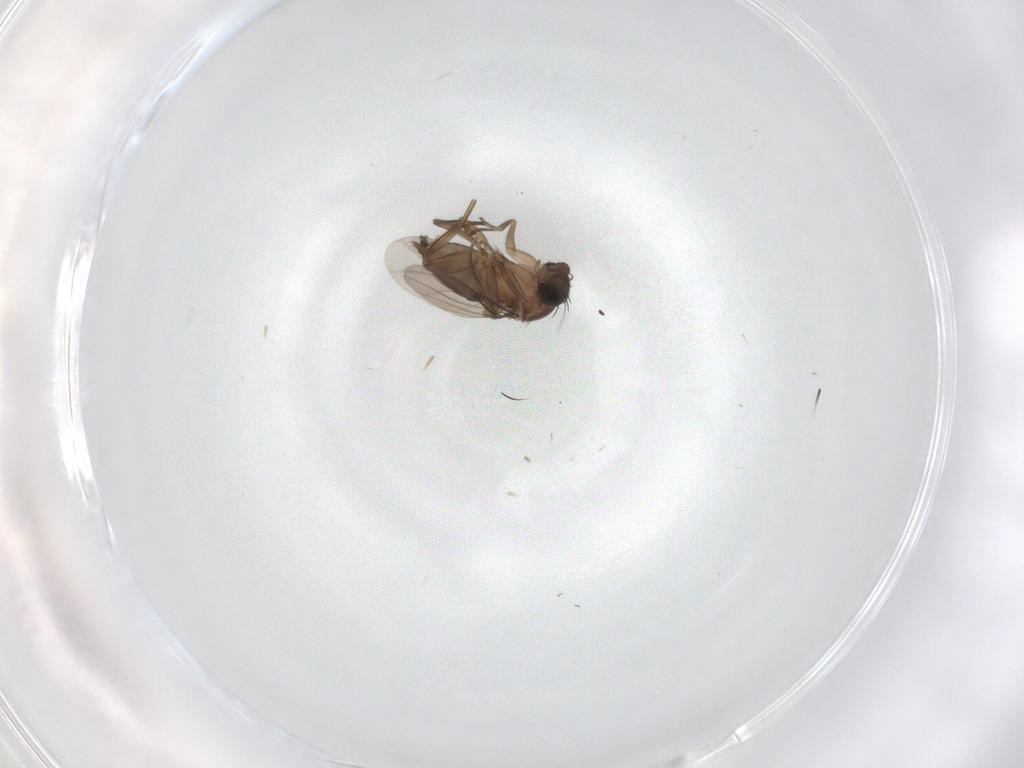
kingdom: Animalia
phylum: Arthropoda
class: Insecta
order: Diptera
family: Phoridae
